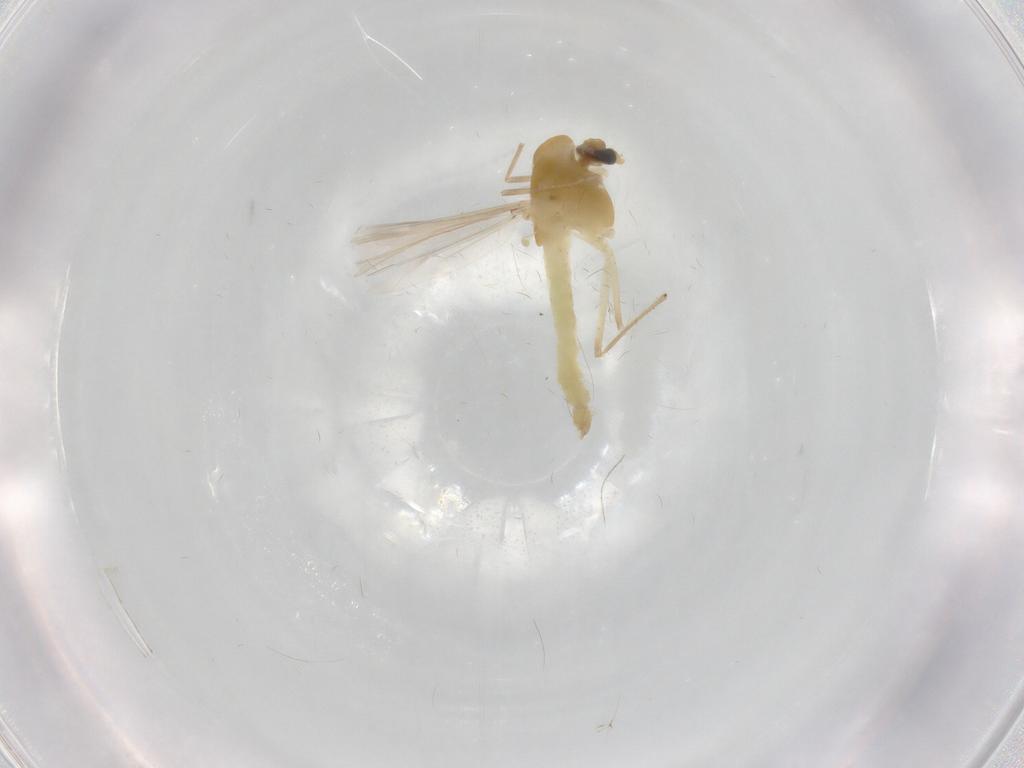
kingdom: Animalia
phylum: Arthropoda
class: Insecta
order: Diptera
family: Chironomidae
